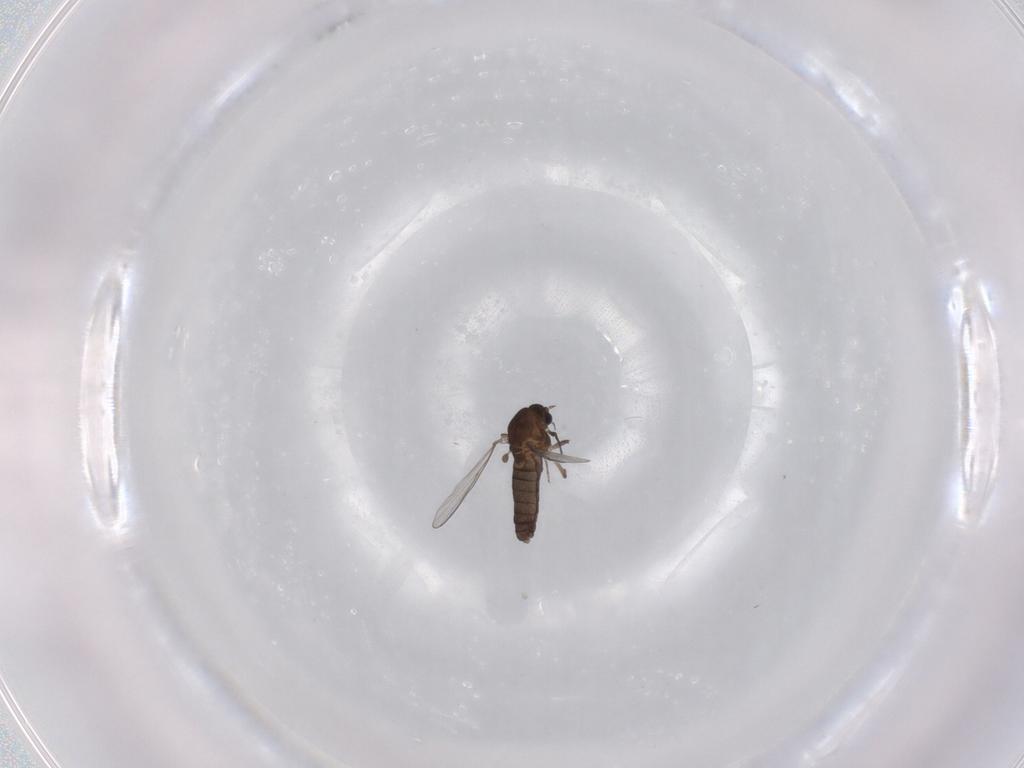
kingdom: Animalia
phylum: Arthropoda
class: Insecta
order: Diptera
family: Chironomidae
